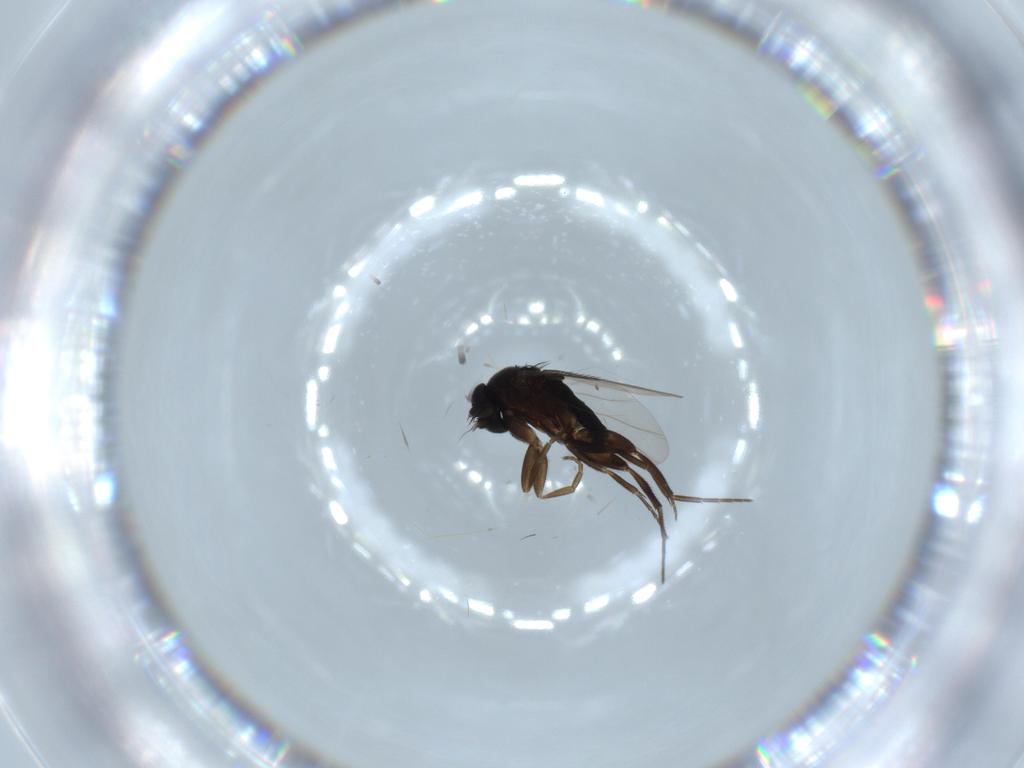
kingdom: Animalia
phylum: Arthropoda
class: Insecta
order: Diptera
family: Phoridae
